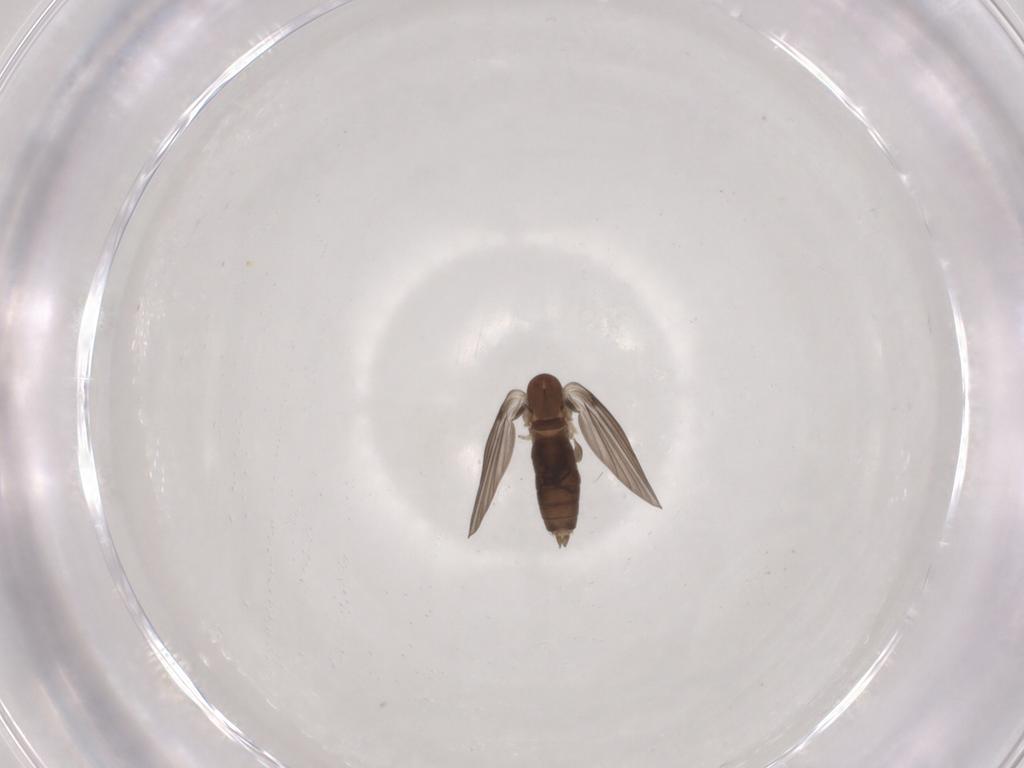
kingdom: Animalia
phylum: Arthropoda
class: Insecta
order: Diptera
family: Psychodidae
